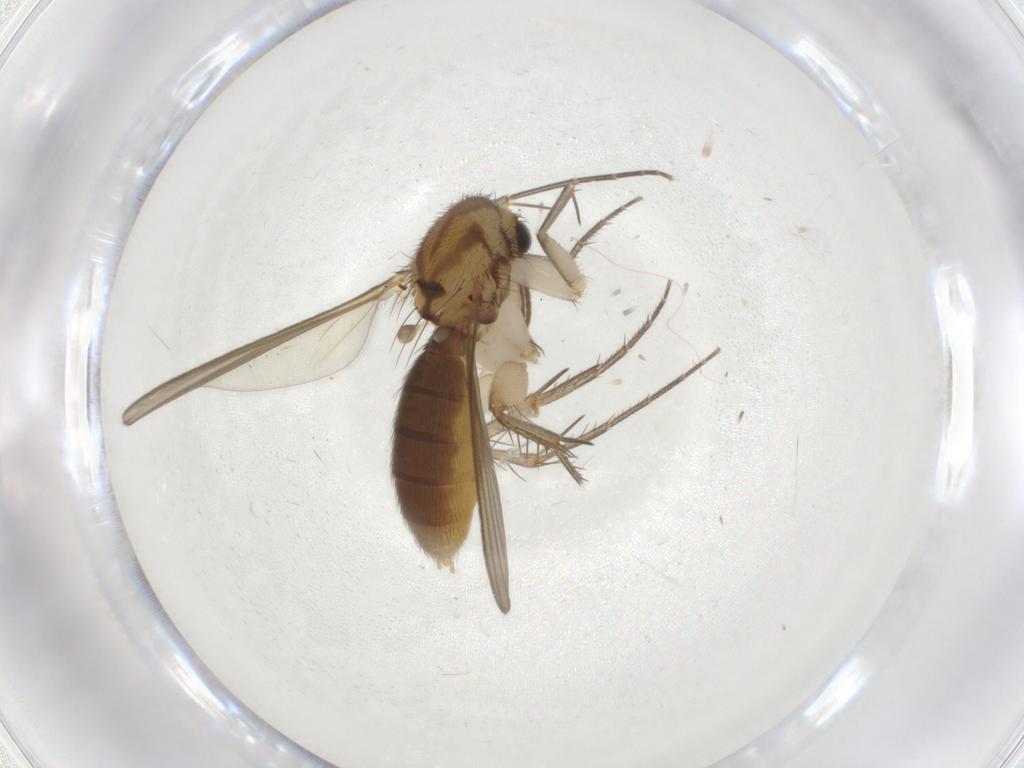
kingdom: Animalia
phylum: Arthropoda
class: Insecta
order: Diptera
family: Mycetophilidae
